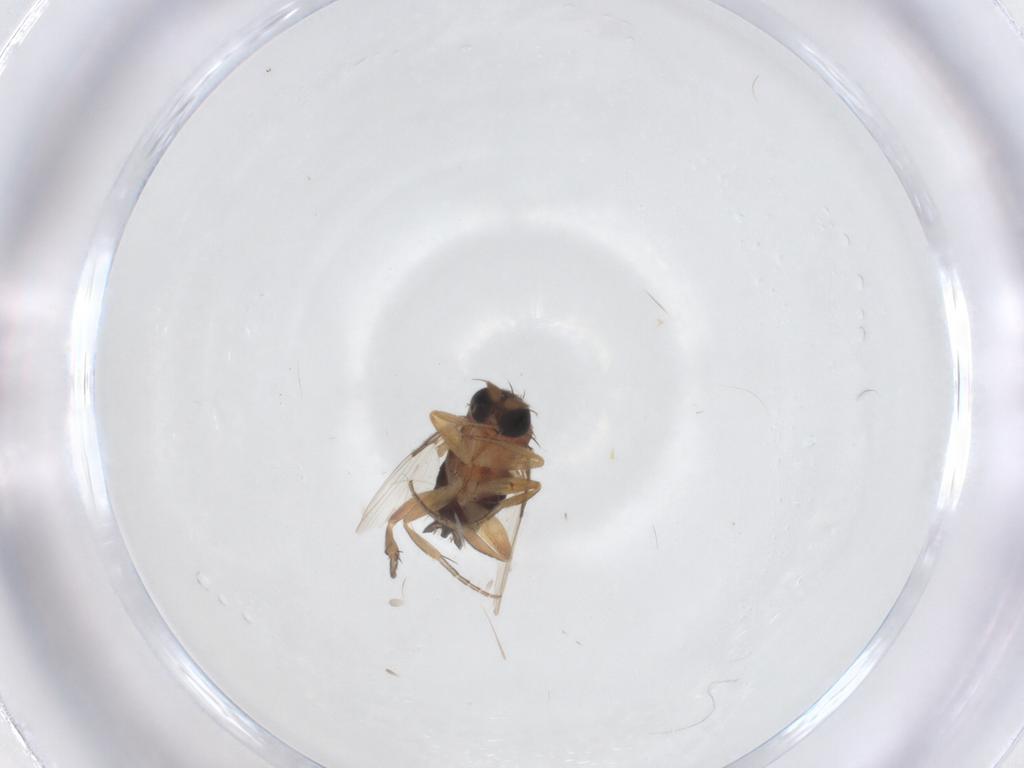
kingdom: Animalia
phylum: Arthropoda
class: Insecta
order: Diptera
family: Phoridae
